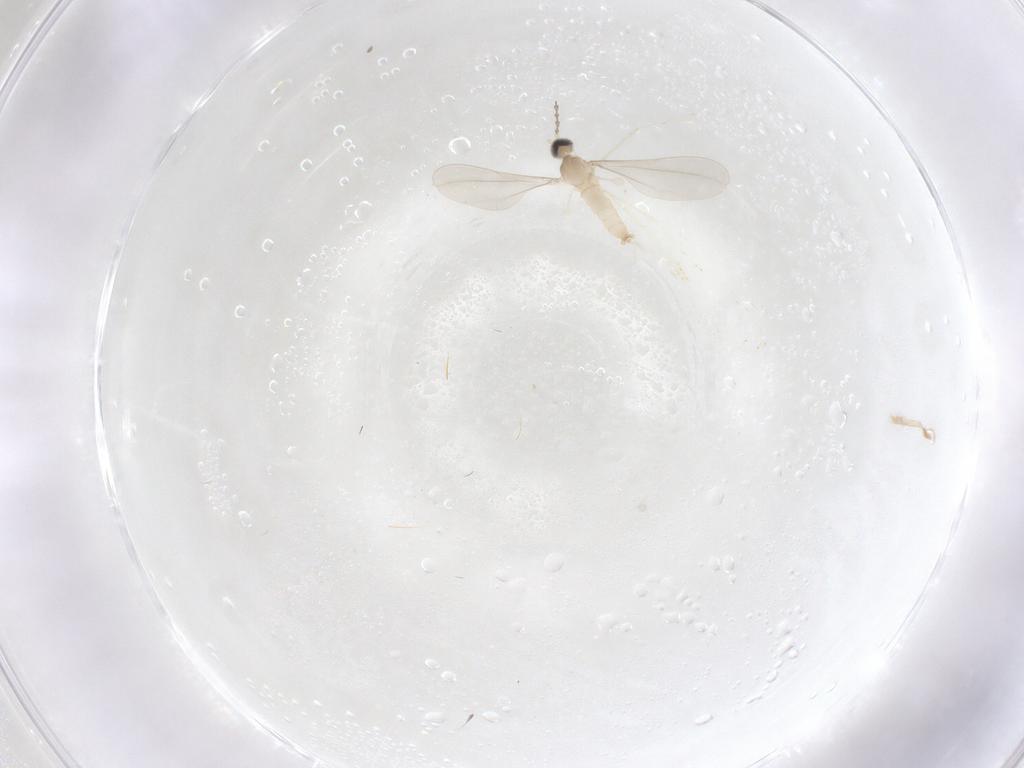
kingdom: Animalia
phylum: Arthropoda
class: Insecta
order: Diptera
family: Cecidomyiidae
